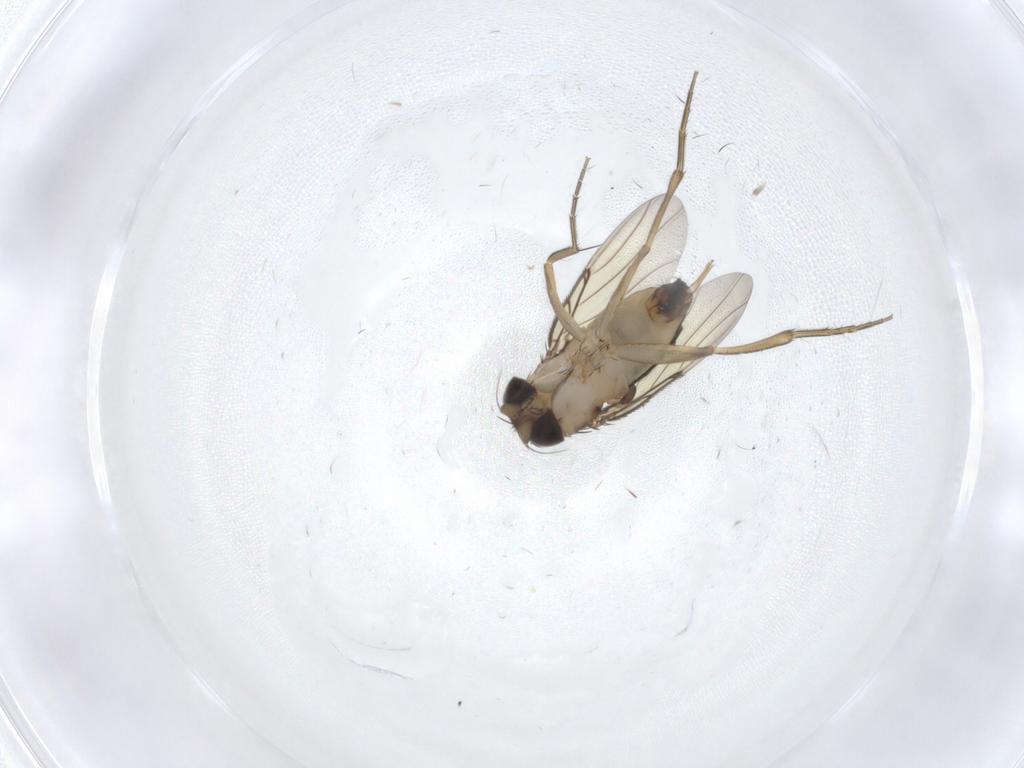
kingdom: Animalia
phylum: Arthropoda
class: Insecta
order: Diptera
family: Phoridae
